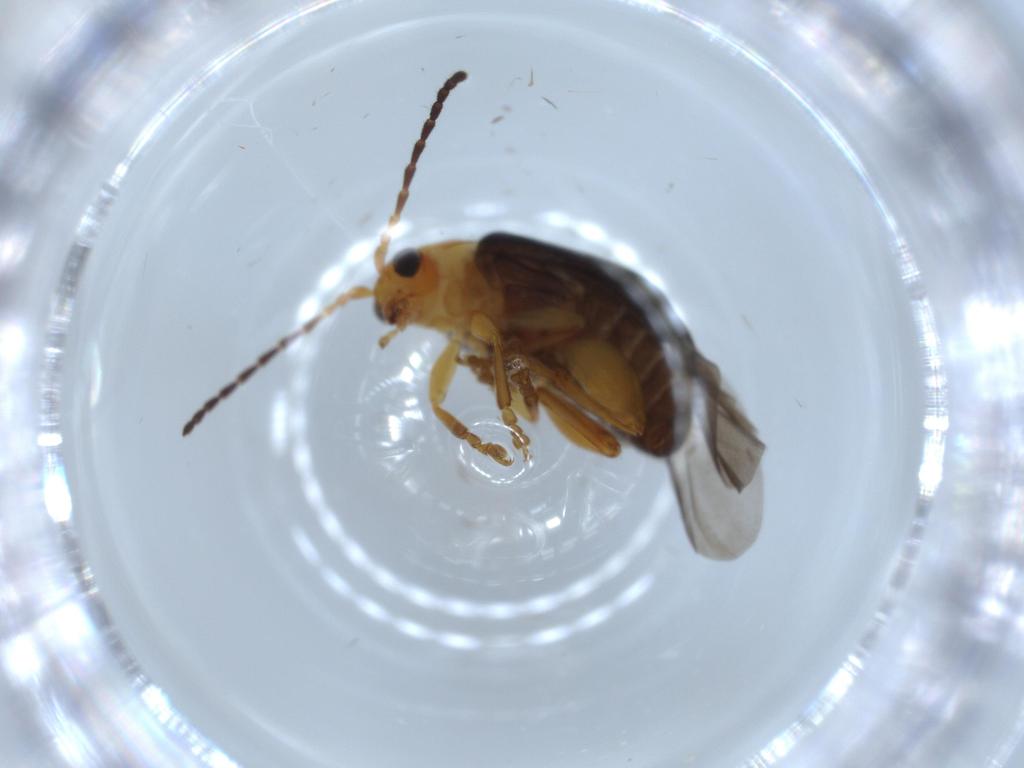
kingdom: Animalia
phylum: Arthropoda
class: Insecta
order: Coleoptera
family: Chrysomelidae
